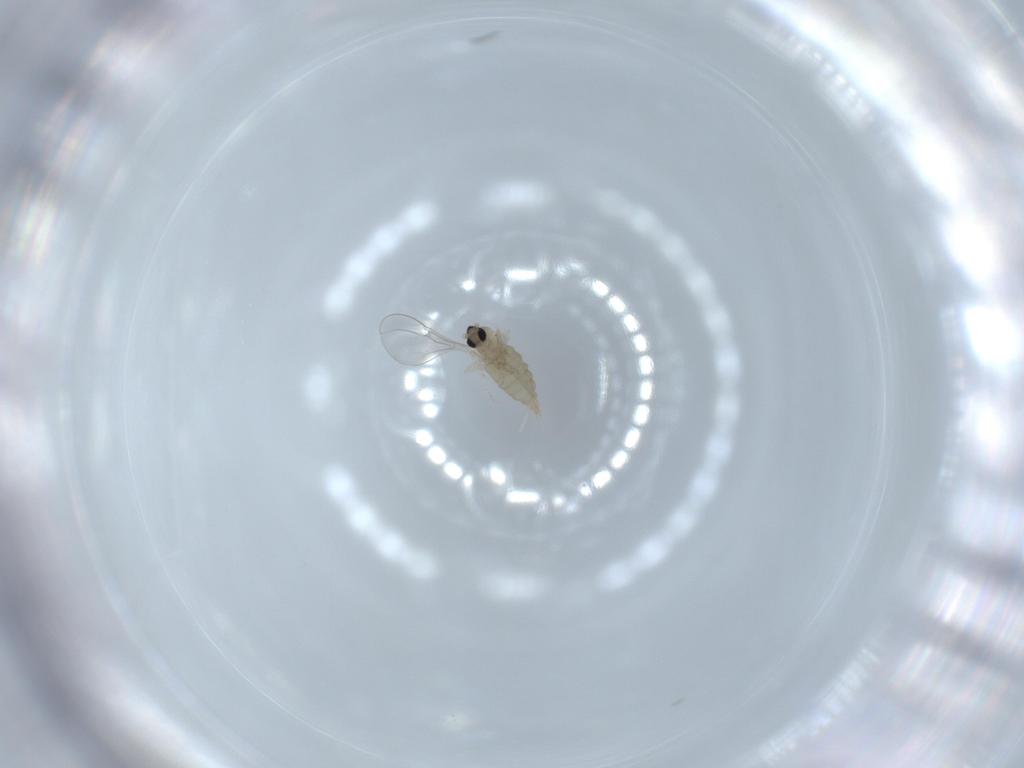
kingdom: Animalia
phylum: Arthropoda
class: Insecta
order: Diptera
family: Cecidomyiidae
